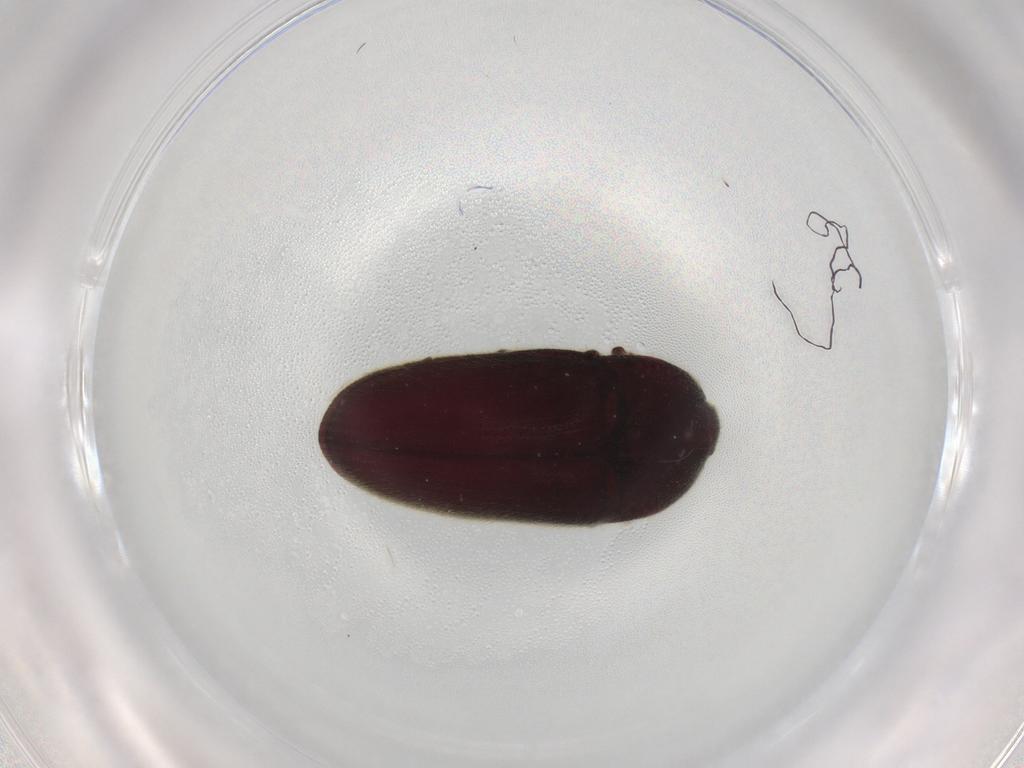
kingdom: Animalia
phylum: Arthropoda
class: Insecta
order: Coleoptera
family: Throscidae
